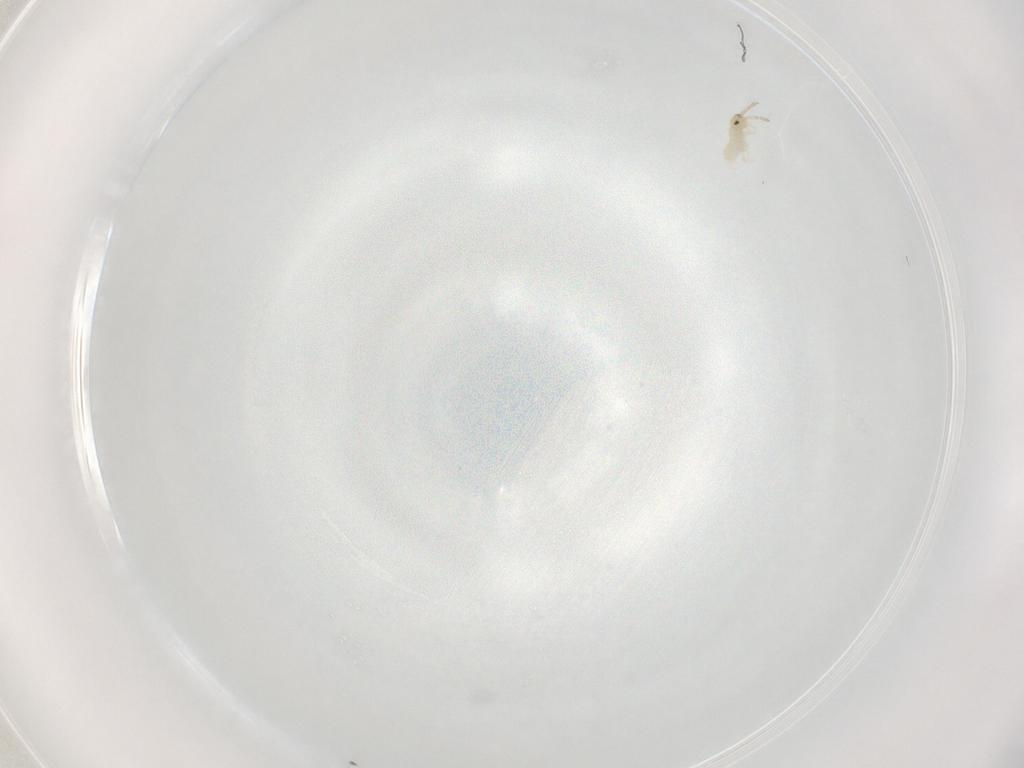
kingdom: Animalia
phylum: Arthropoda
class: Collembola
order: Entomobryomorpha
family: Tomoceridae
